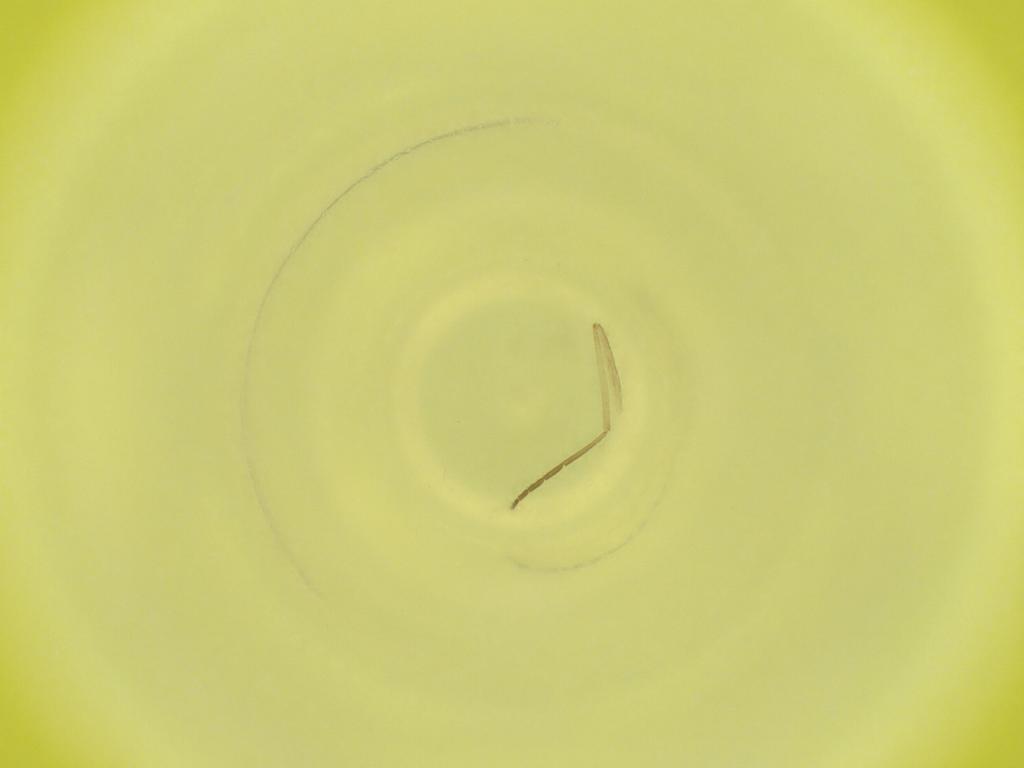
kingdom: Animalia
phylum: Arthropoda
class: Insecta
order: Diptera
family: Cecidomyiidae
